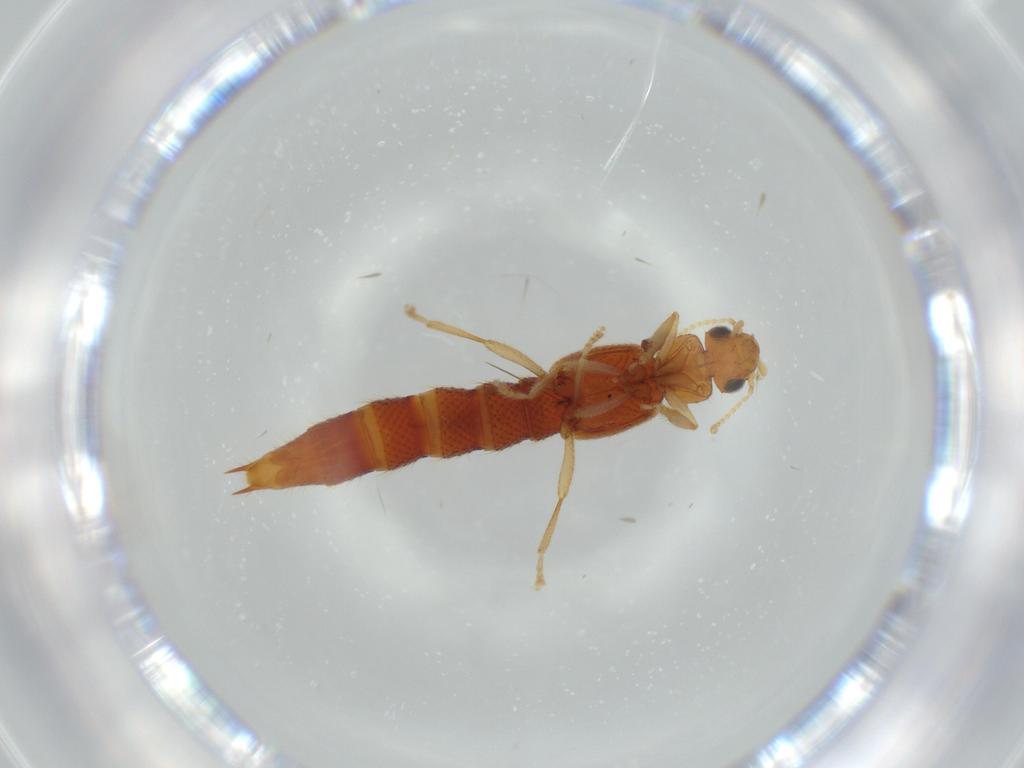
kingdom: Animalia
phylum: Arthropoda
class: Insecta
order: Coleoptera
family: Staphylinidae
